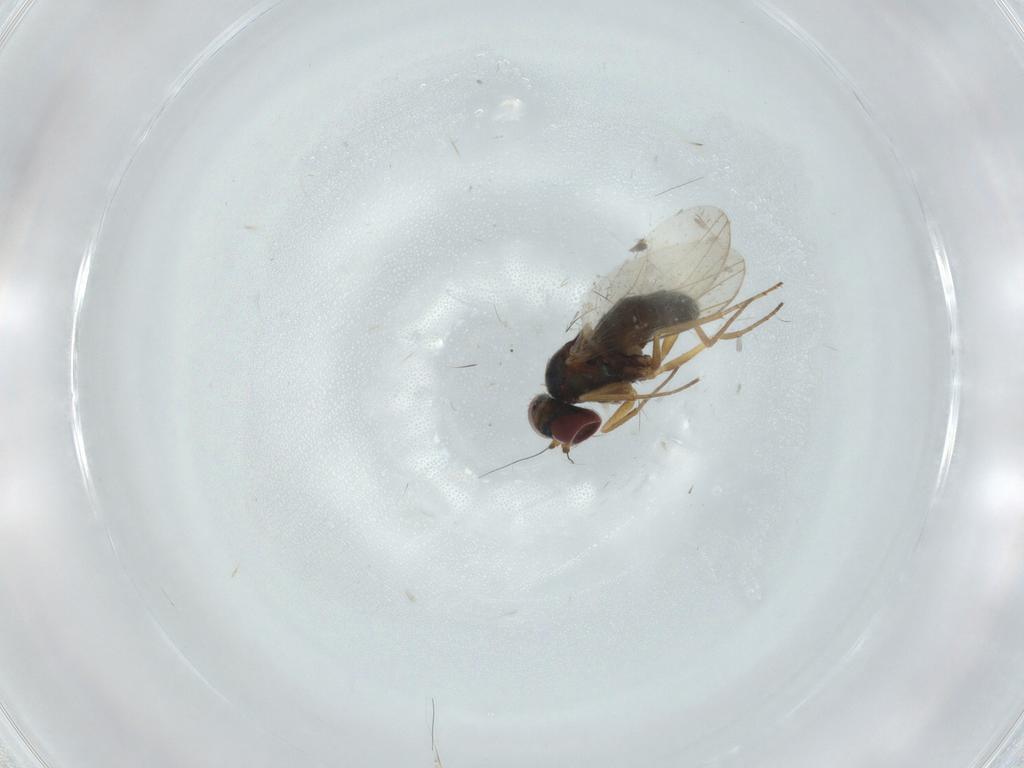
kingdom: Animalia
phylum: Arthropoda
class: Insecta
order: Diptera
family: Dolichopodidae
